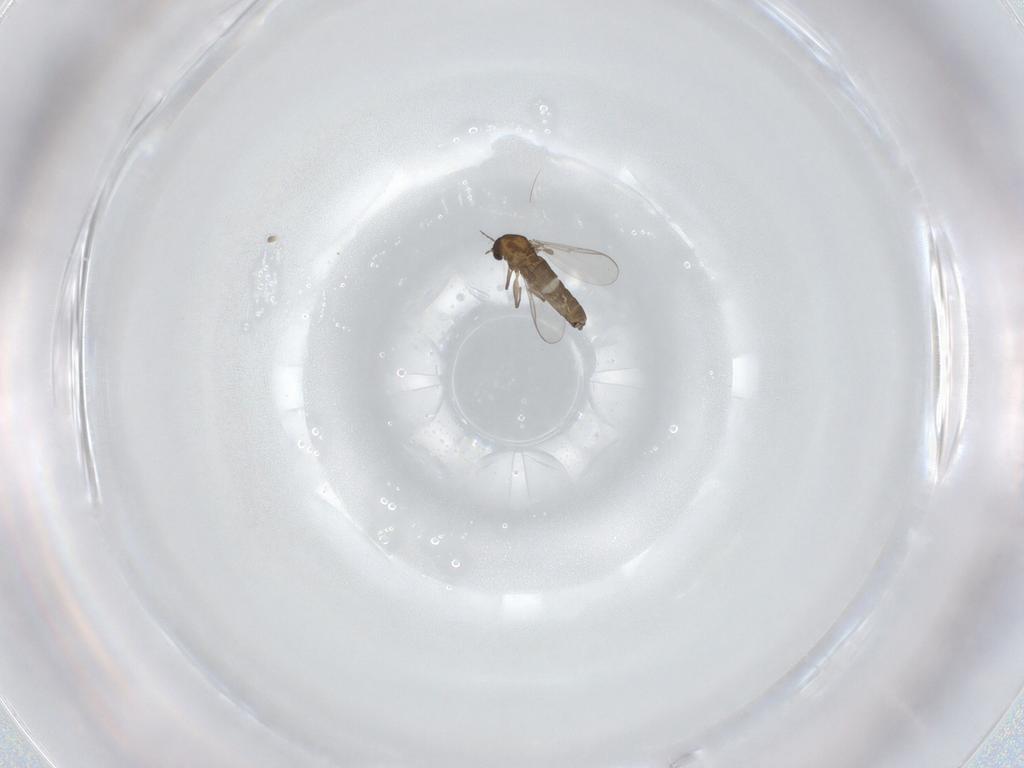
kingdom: Animalia
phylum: Arthropoda
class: Insecta
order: Diptera
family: Chironomidae
